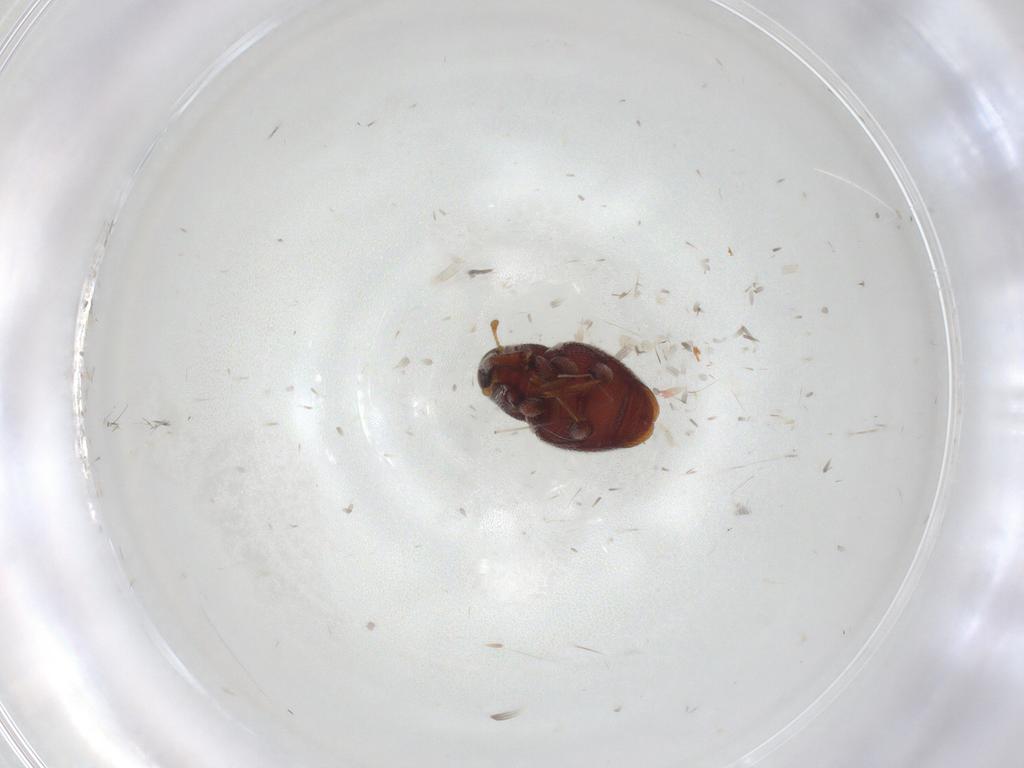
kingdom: Animalia
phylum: Arthropoda
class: Insecta
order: Coleoptera
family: Curculionidae
